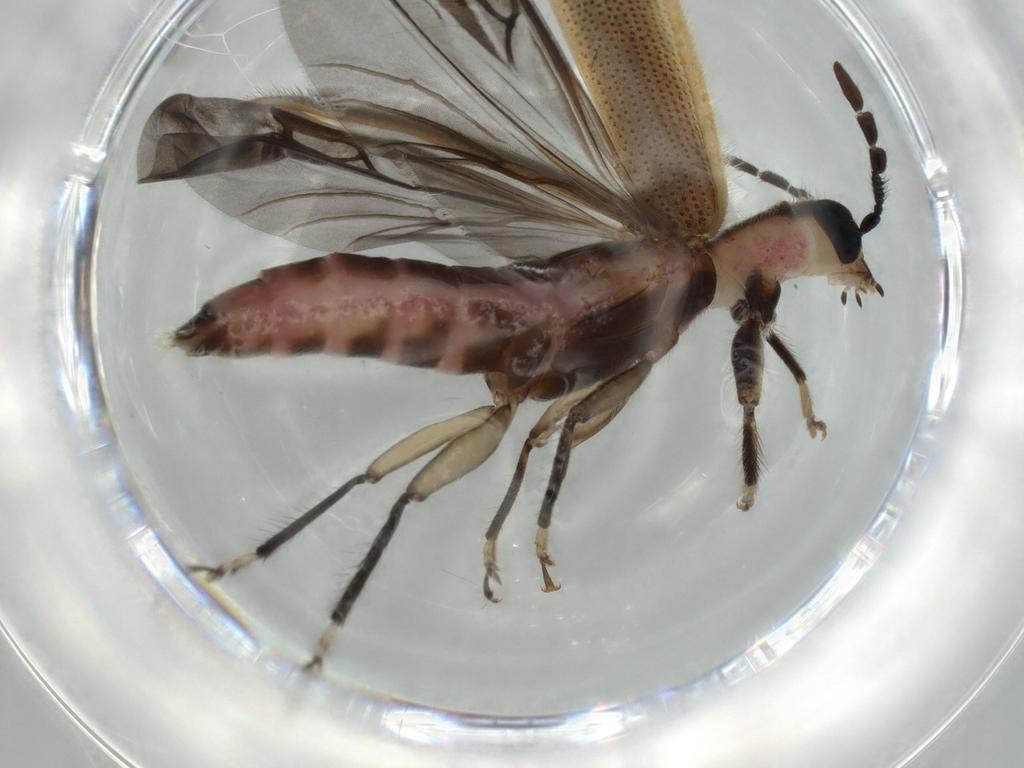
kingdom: Animalia
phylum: Arthropoda
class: Insecta
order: Coleoptera
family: Cleridae
